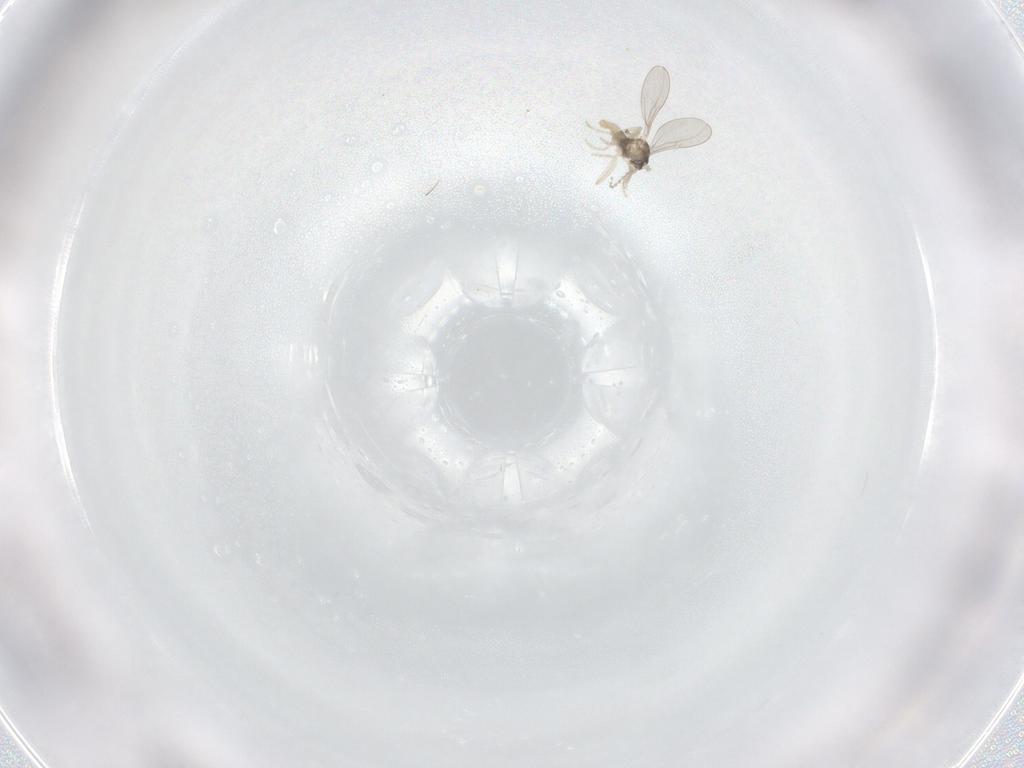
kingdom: Animalia
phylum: Arthropoda
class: Insecta
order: Diptera
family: Cecidomyiidae
